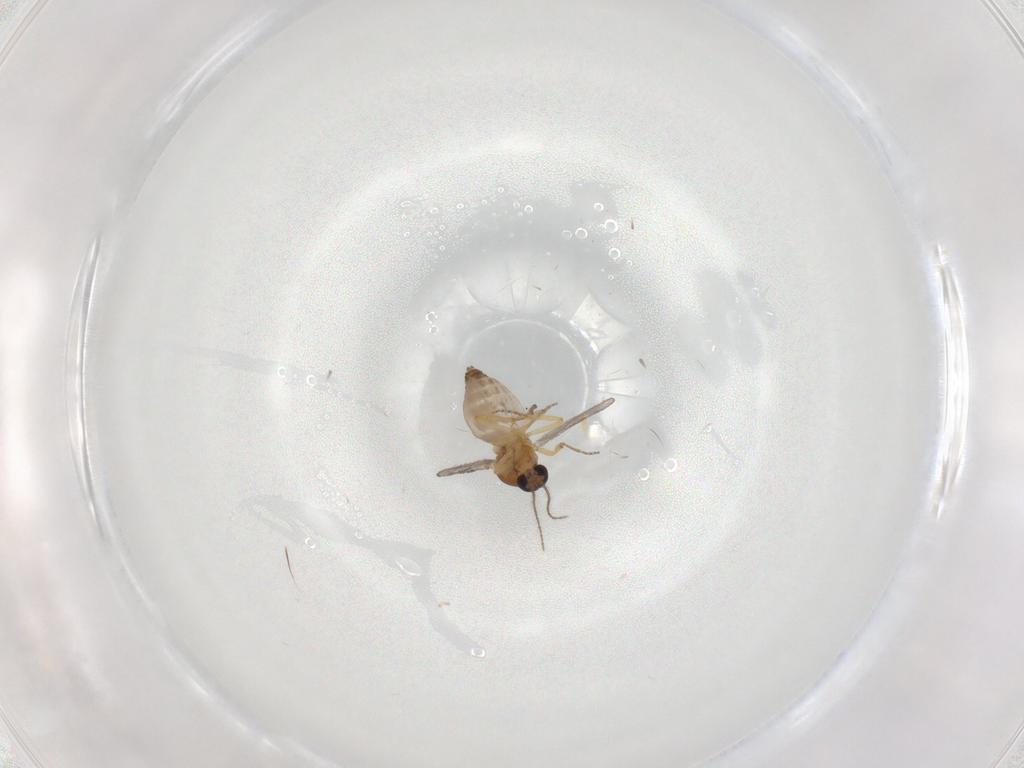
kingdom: Animalia
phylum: Arthropoda
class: Insecta
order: Diptera
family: Ceratopogonidae
